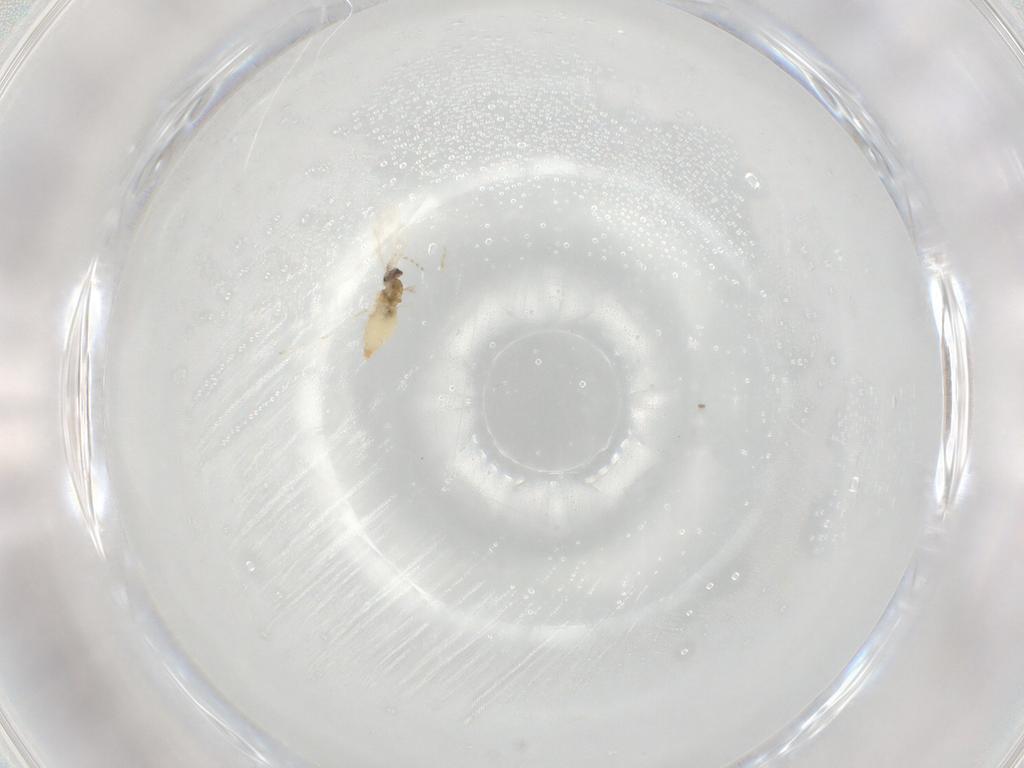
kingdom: Animalia
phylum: Arthropoda
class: Insecta
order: Diptera
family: Cecidomyiidae
